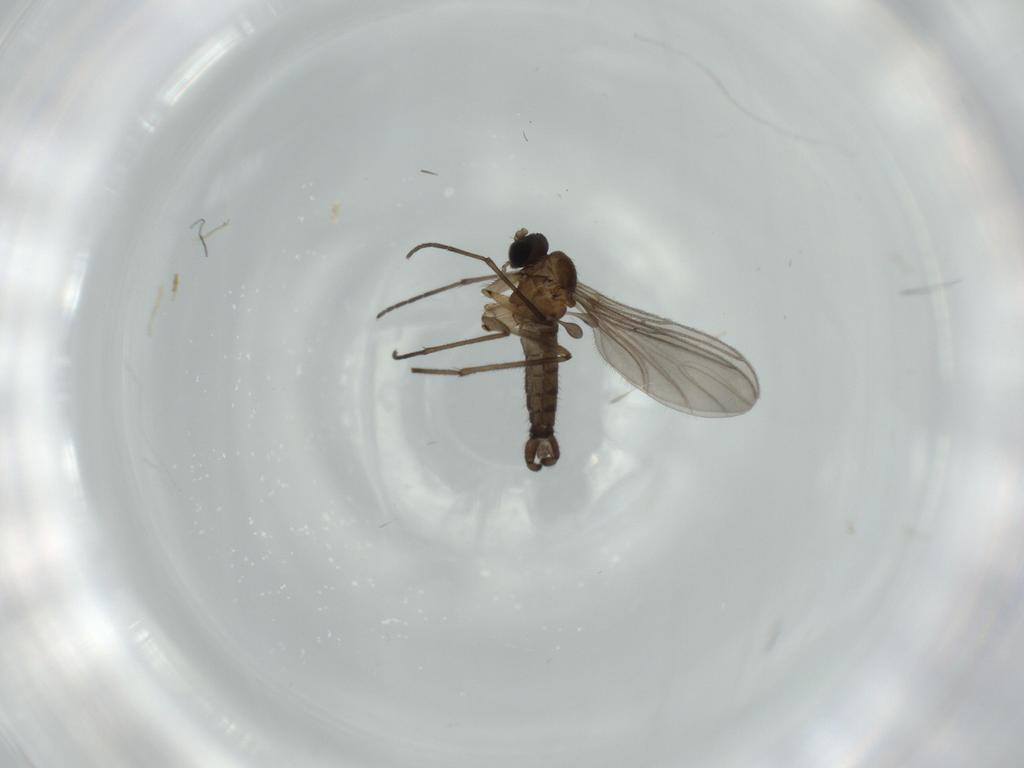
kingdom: Animalia
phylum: Arthropoda
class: Insecta
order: Diptera
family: Sciaridae
